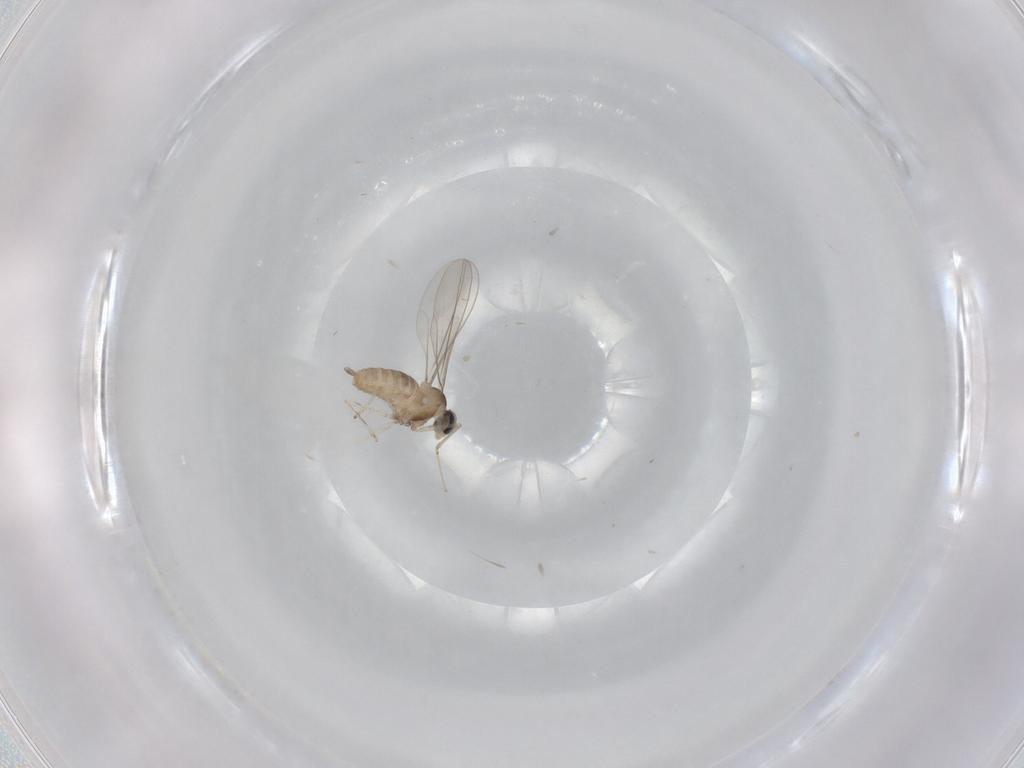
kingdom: Animalia
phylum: Arthropoda
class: Insecta
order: Diptera
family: Cecidomyiidae
